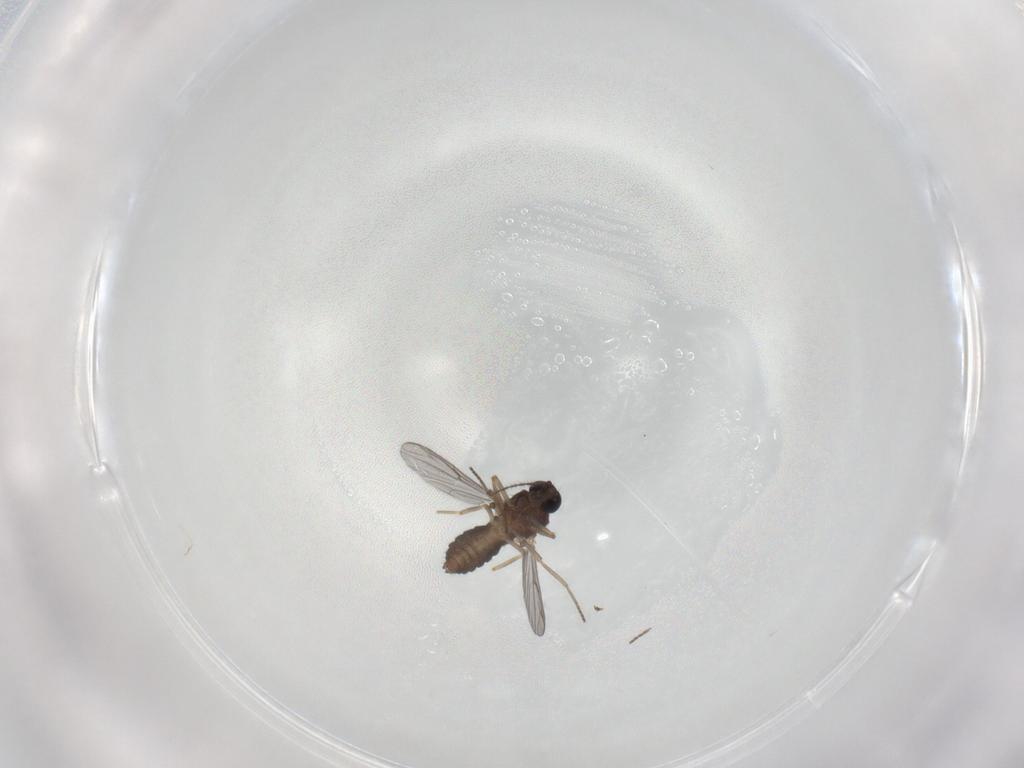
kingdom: Animalia
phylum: Arthropoda
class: Insecta
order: Diptera
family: Ceratopogonidae
